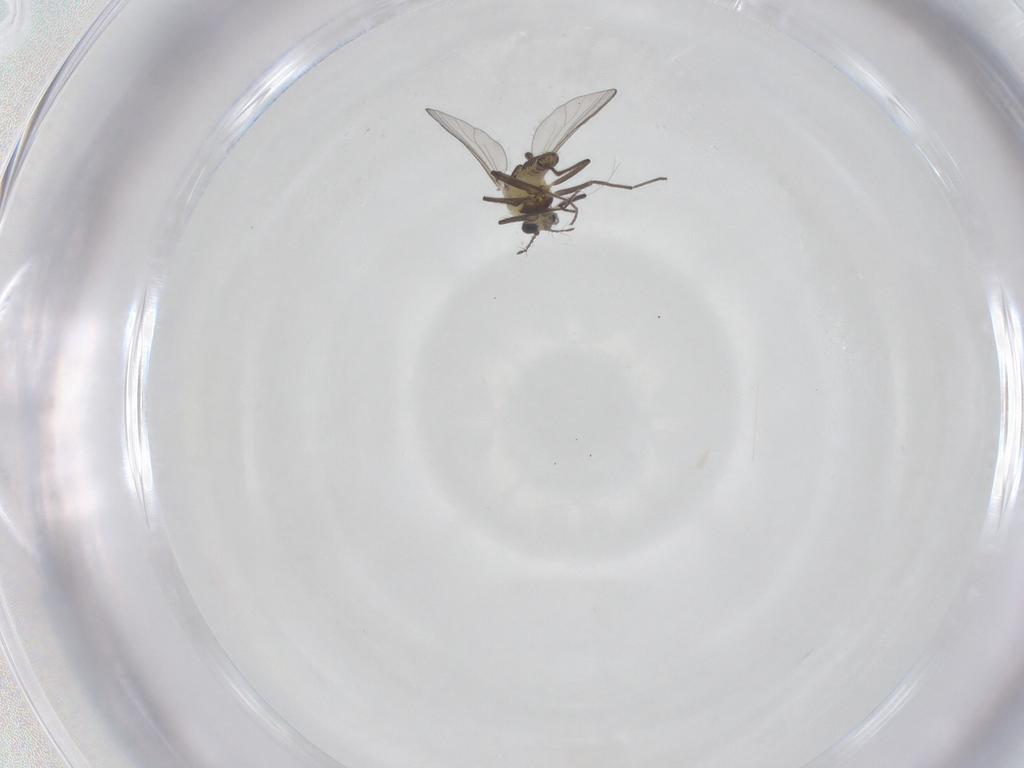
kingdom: Animalia
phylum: Arthropoda
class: Insecta
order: Diptera
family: Chironomidae
